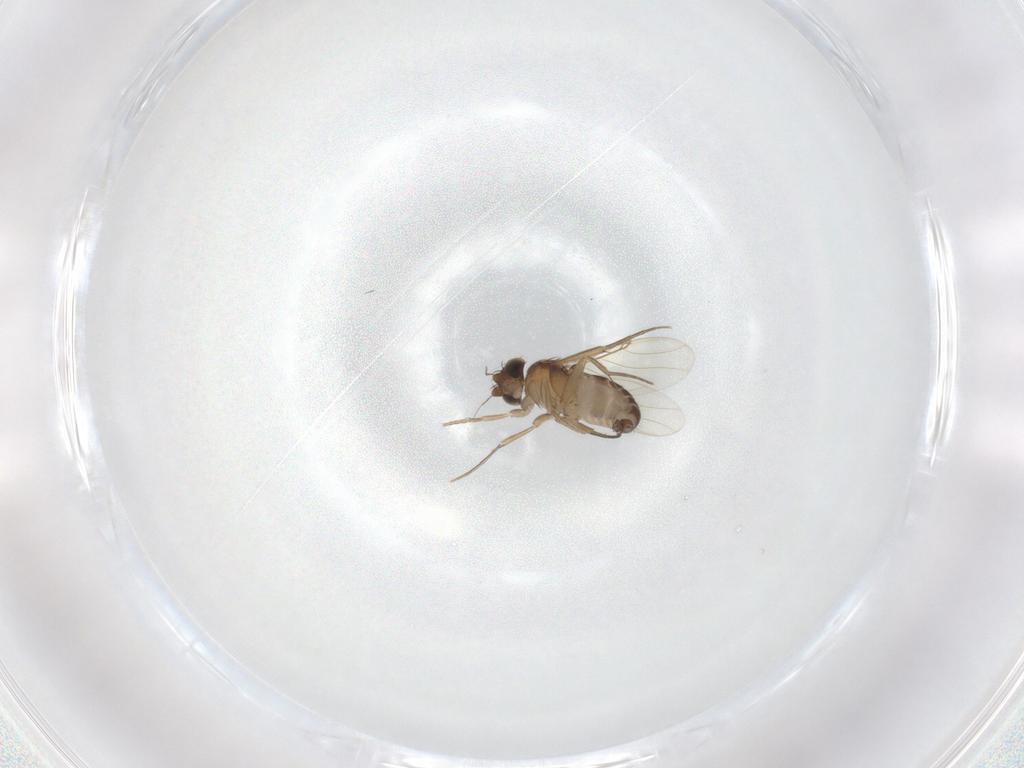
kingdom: Animalia
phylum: Arthropoda
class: Insecta
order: Diptera
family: Phoridae
